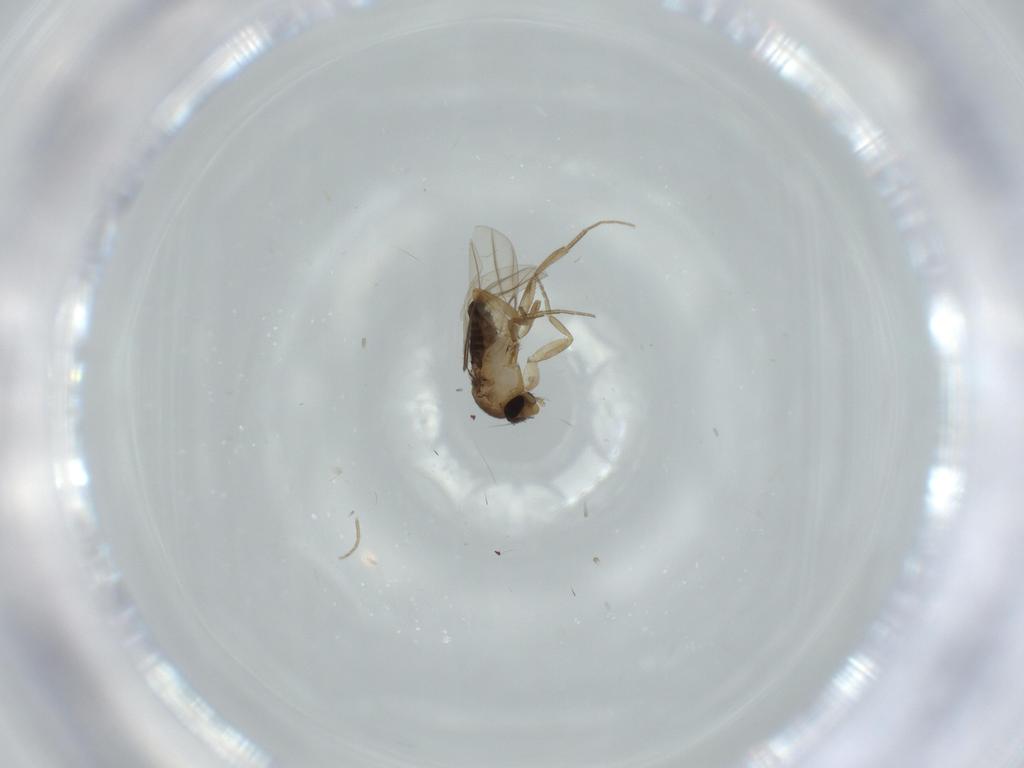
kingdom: Animalia
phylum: Arthropoda
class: Insecta
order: Diptera
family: Phoridae
